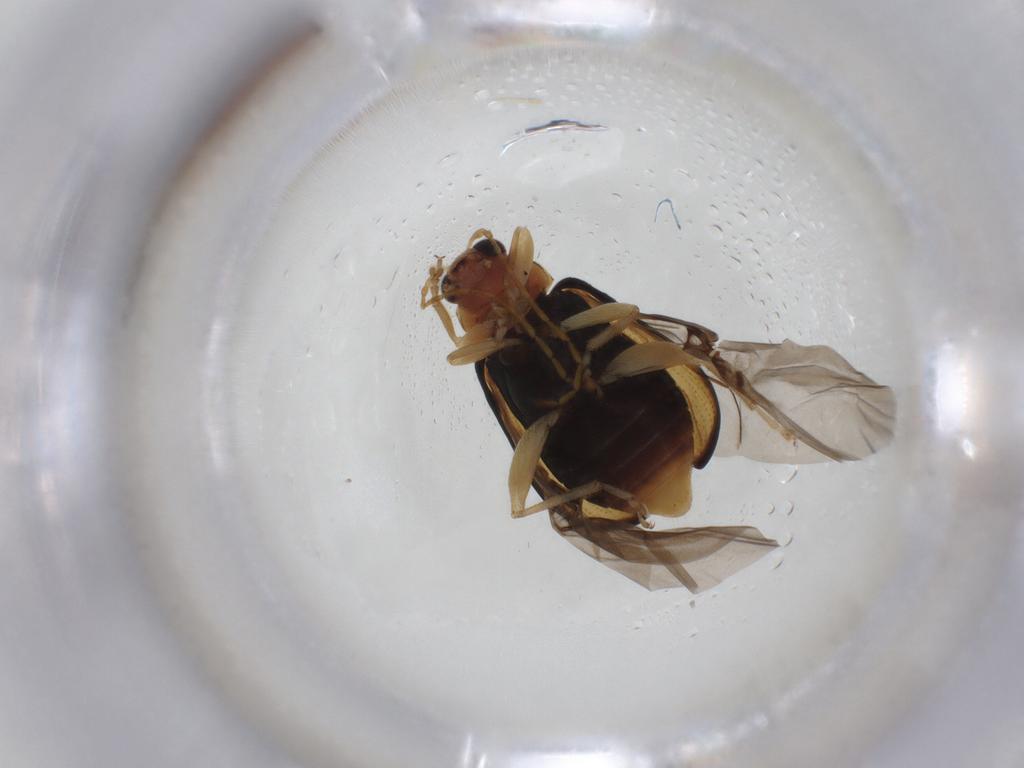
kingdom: Animalia
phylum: Arthropoda
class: Insecta
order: Coleoptera
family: Chrysomelidae
